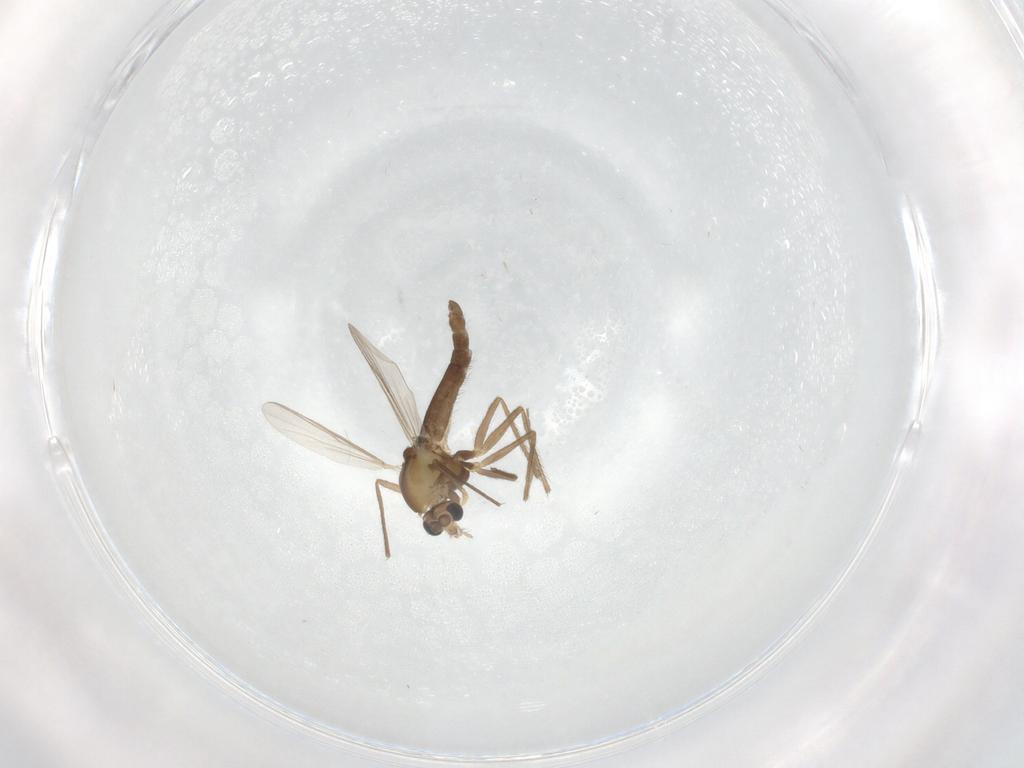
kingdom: Animalia
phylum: Arthropoda
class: Insecta
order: Diptera
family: Chironomidae
